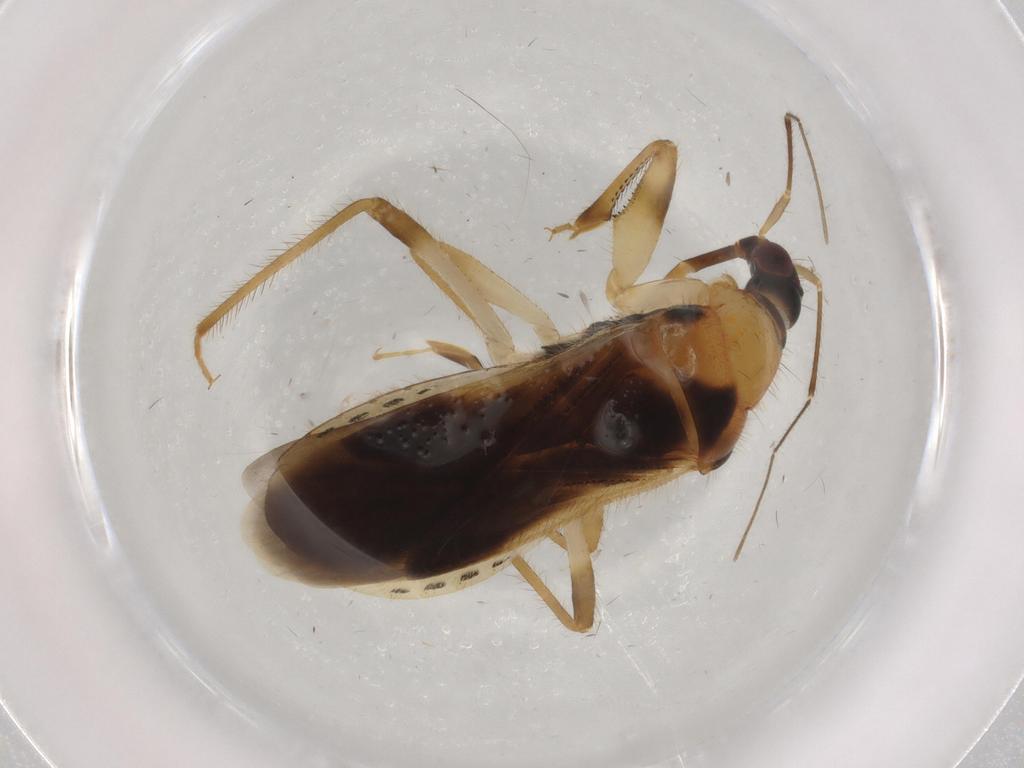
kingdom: Animalia
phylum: Arthropoda
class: Insecta
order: Hemiptera
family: Nabidae
